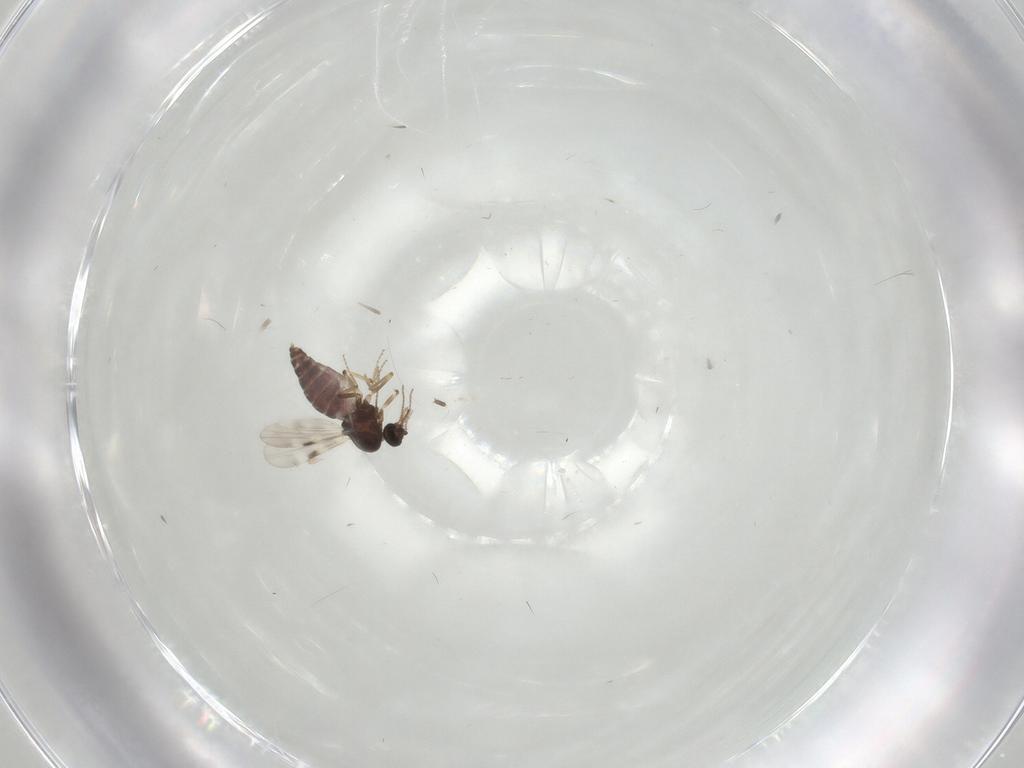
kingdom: Animalia
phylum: Arthropoda
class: Insecta
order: Diptera
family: Sciaridae
